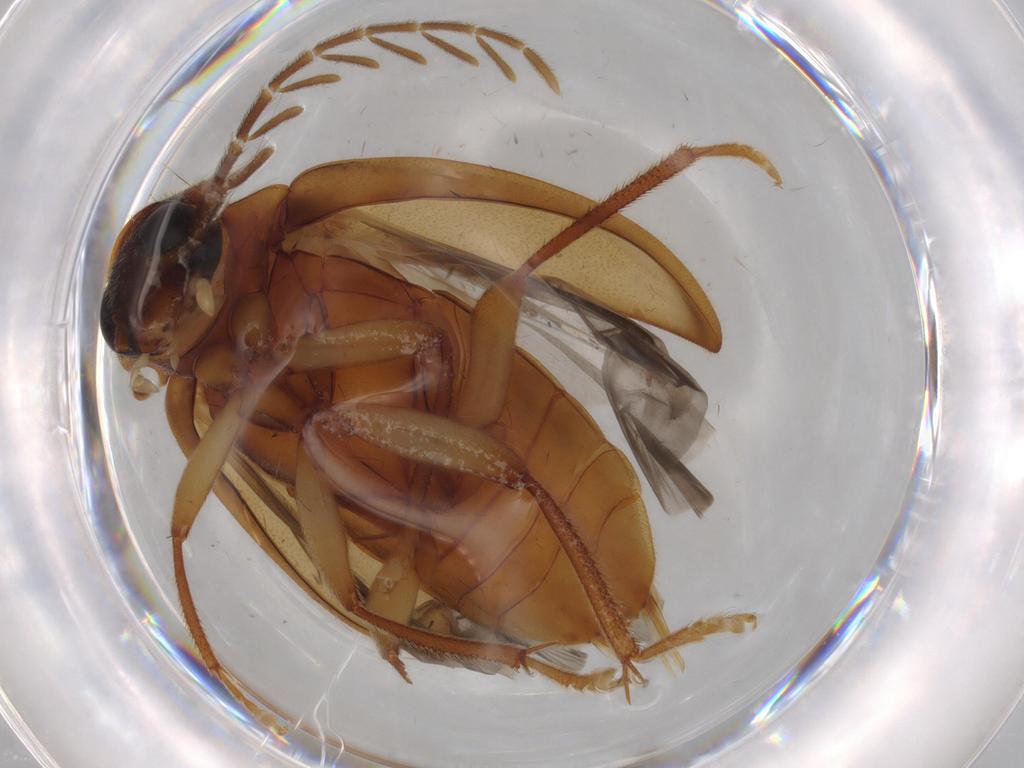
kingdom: Animalia
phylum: Arthropoda
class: Insecta
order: Coleoptera
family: Ptilodactylidae
